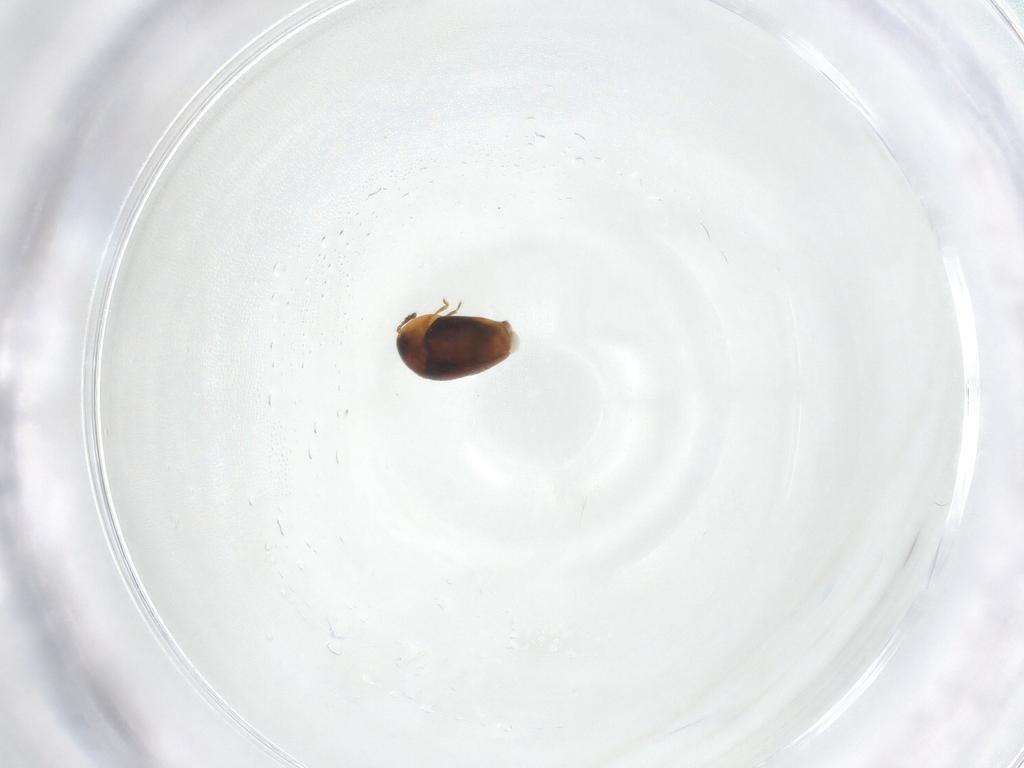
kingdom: Animalia
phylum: Arthropoda
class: Insecta
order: Coleoptera
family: Corylophidae
